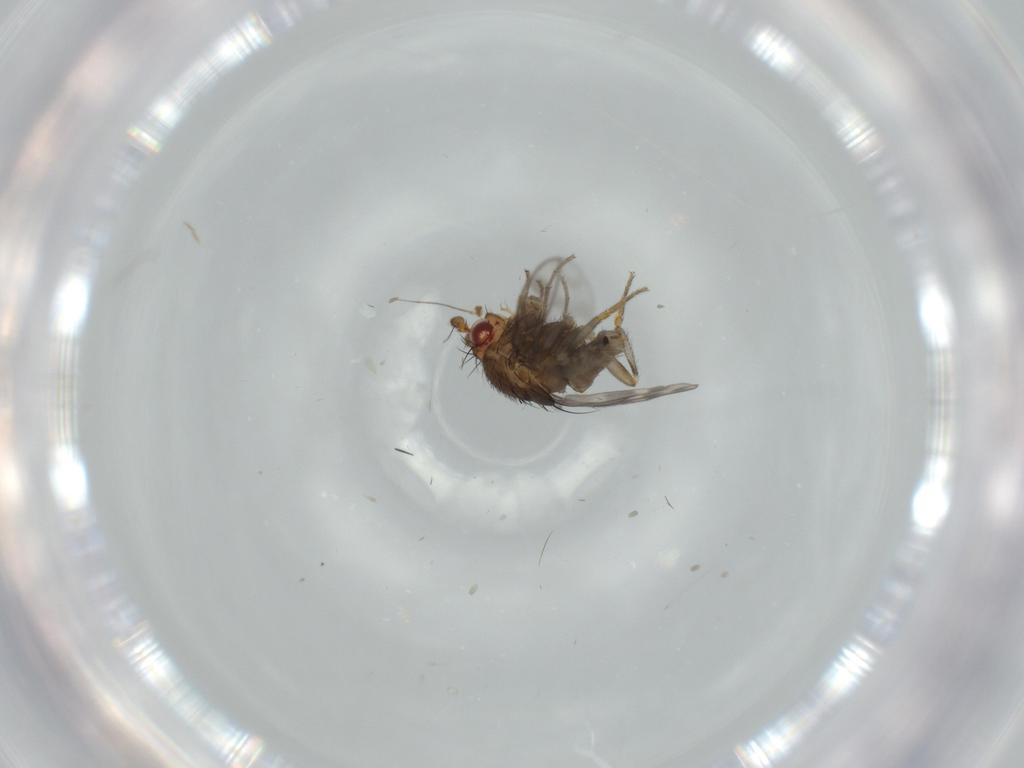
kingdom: Animalia
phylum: Arthropoda
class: Insecta
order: Diptera
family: Sphaeroceridae
